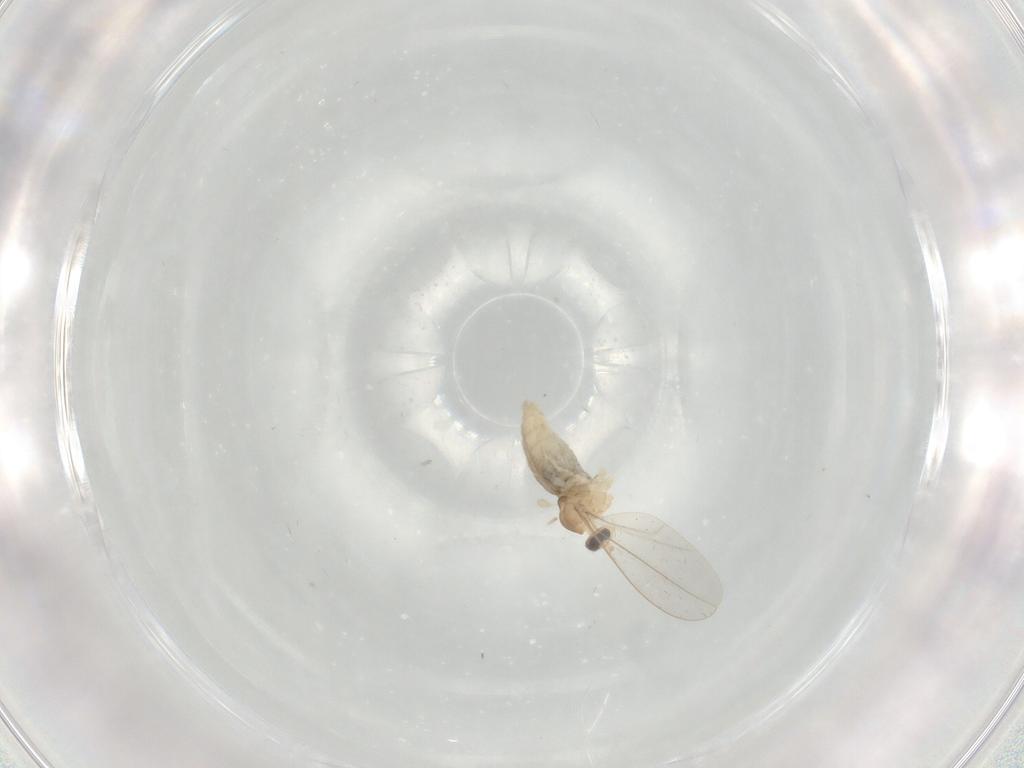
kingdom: Animalia
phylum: Arthropoda
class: Insecta
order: Diptera
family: Cecidomyiidae
